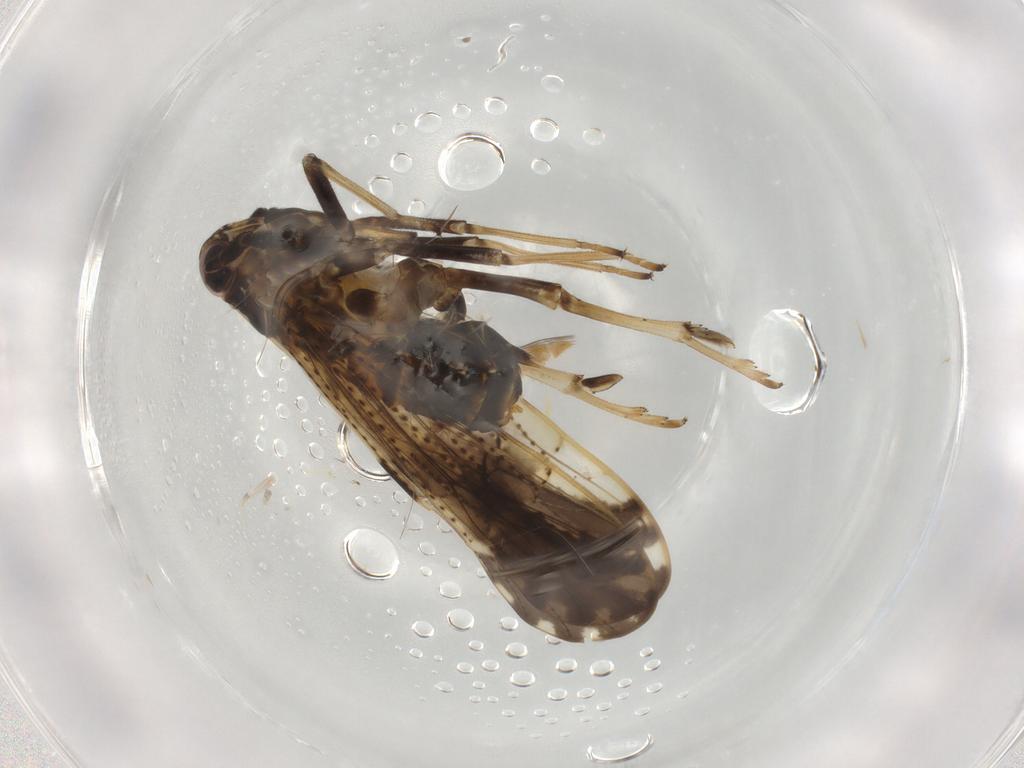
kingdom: Animalia
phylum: Arthropoda
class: Insecta
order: Hemiptera
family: Delphacidae
